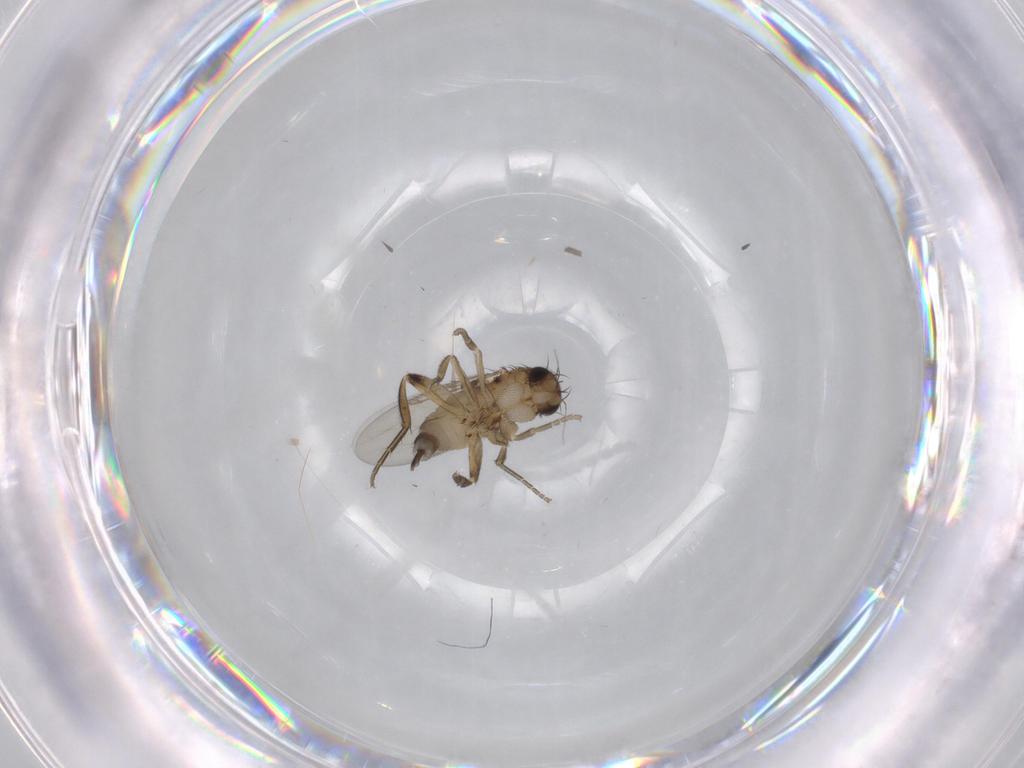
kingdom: Animalia
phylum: Arthropoda
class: Insecta
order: Diptera
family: Phoridae
